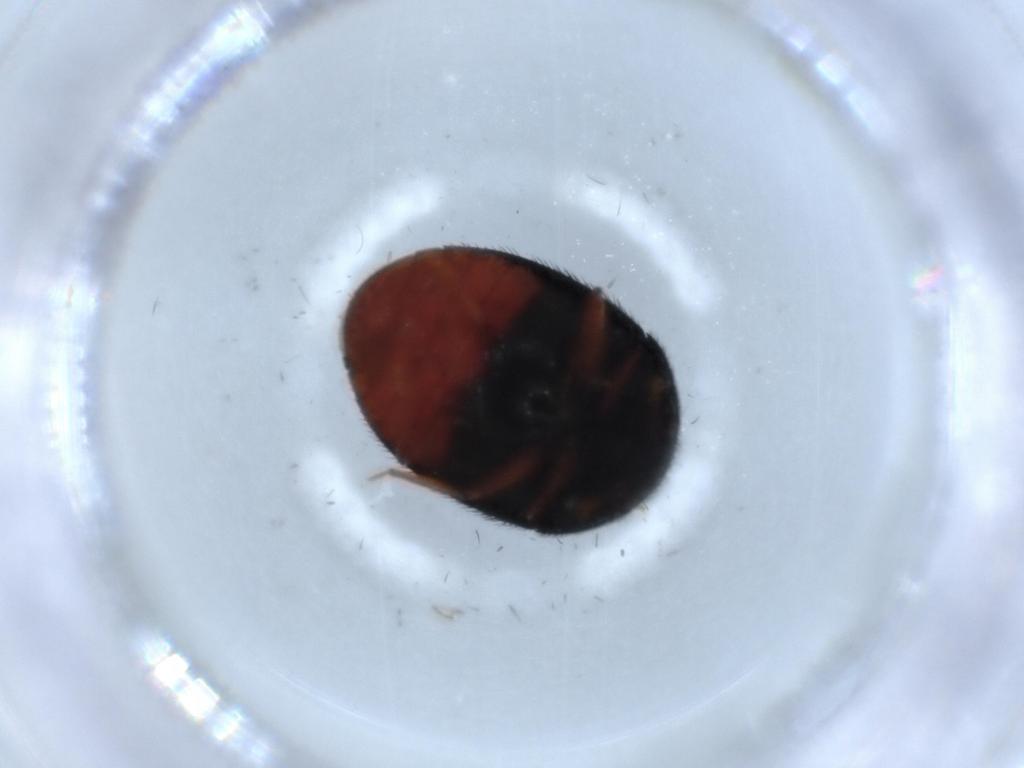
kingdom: Animalia
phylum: Arthropoda
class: Insecta
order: Coleoptera
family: Dermestidae
